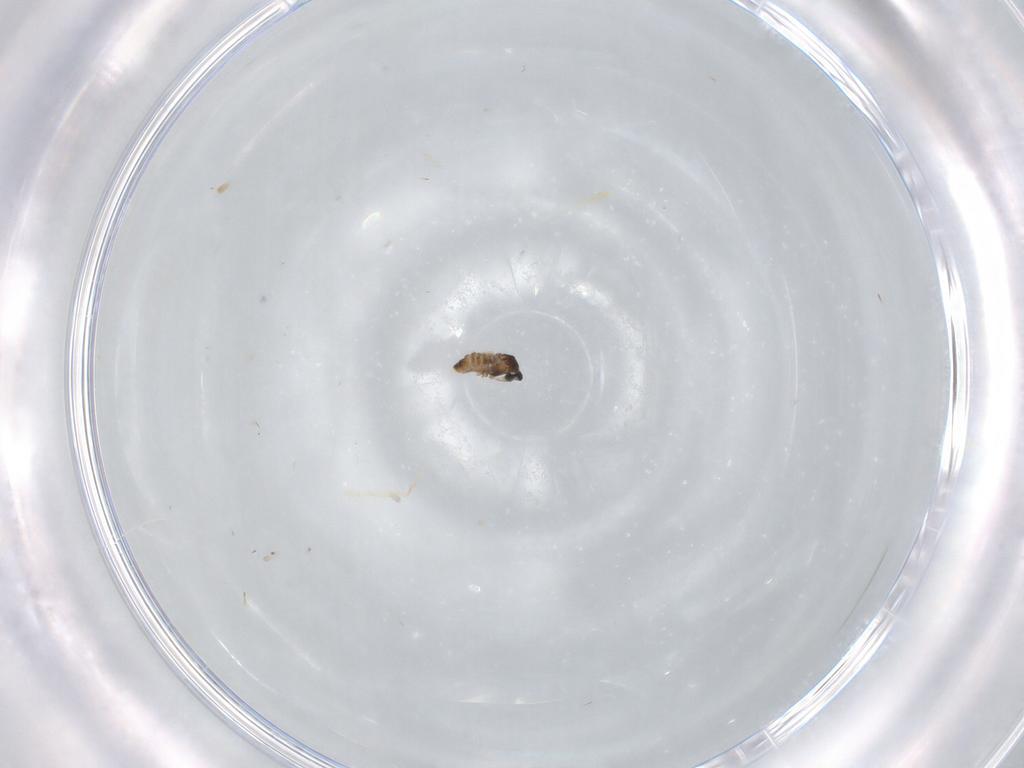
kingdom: Animalia
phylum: Arthropoda
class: Insecta
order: Diptera
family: Cecidomyiidae
